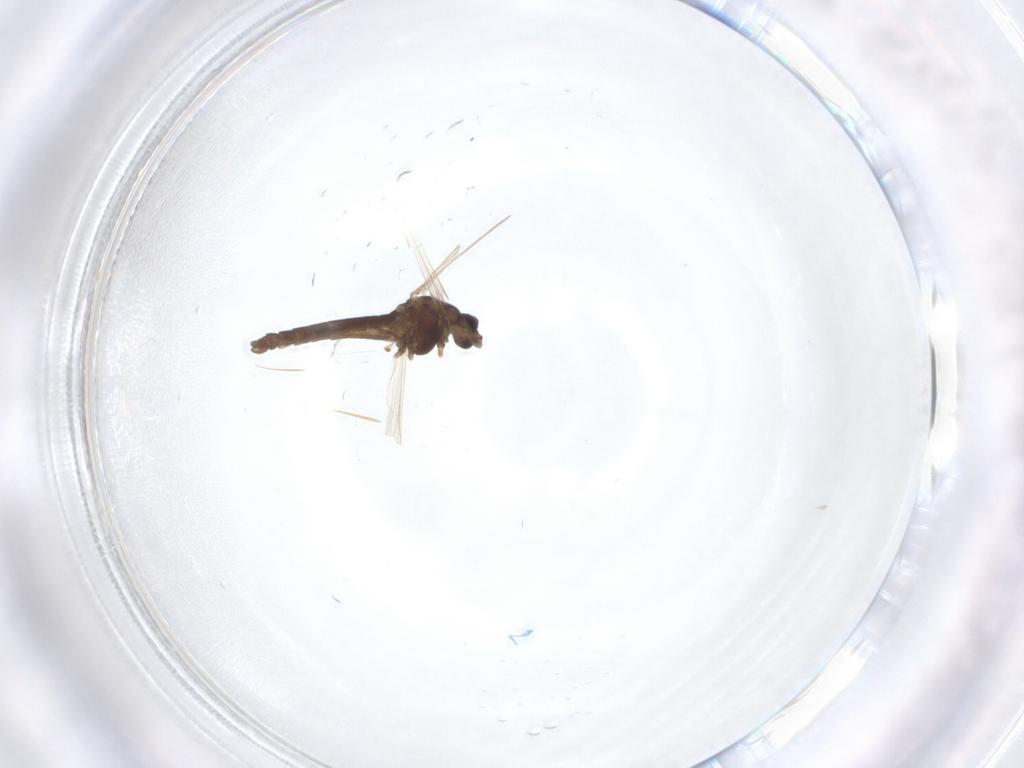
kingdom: Animalia
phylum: Arthropoda
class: Insecta
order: Diptera
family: Chironomidae
